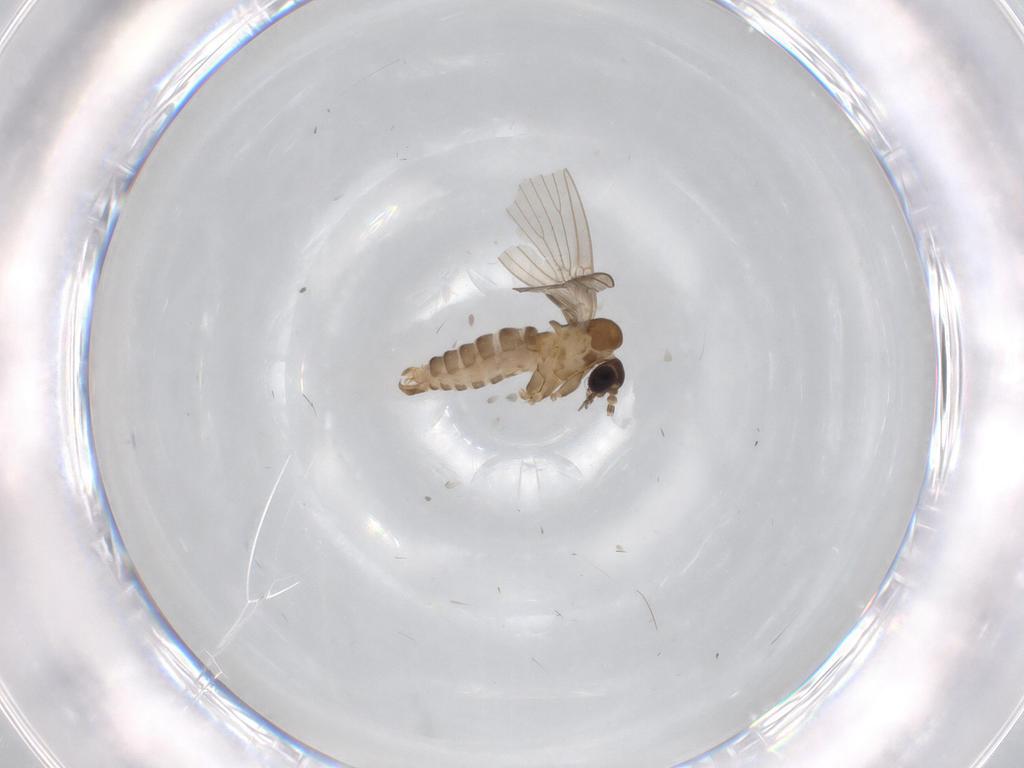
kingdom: Animalia
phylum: Arthropoda
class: Insecta
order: Diptera
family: Psychodidae
